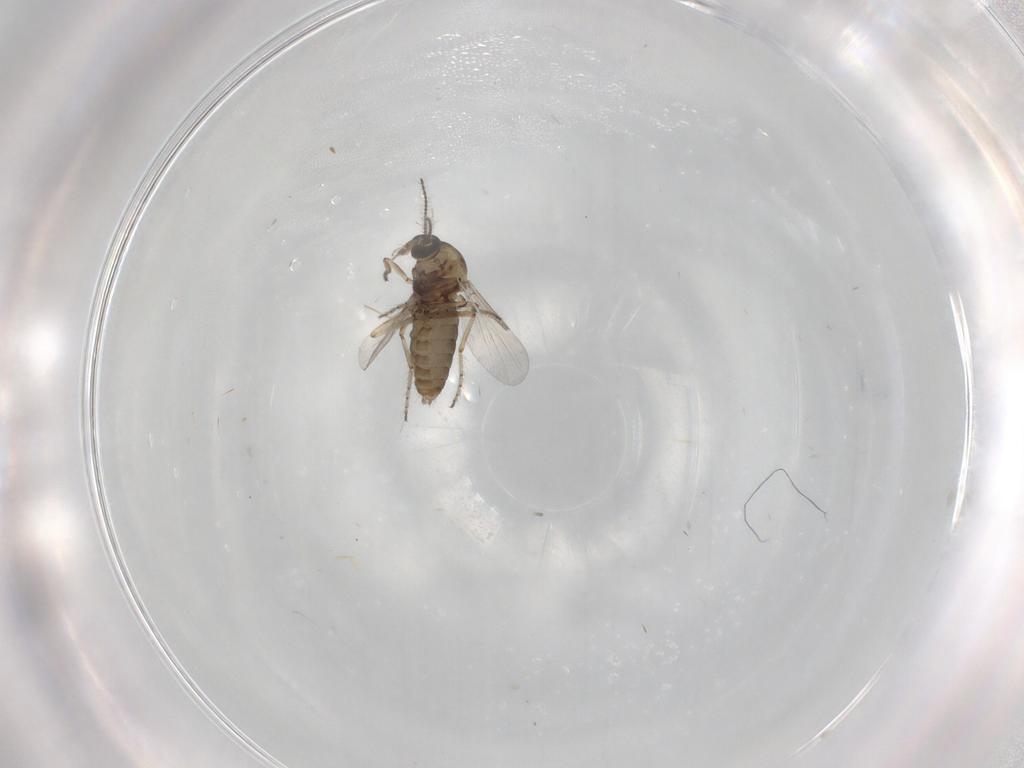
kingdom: Animalia
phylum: Arthropoda
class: Insecta
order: Diptera
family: Ceratopogonidae
